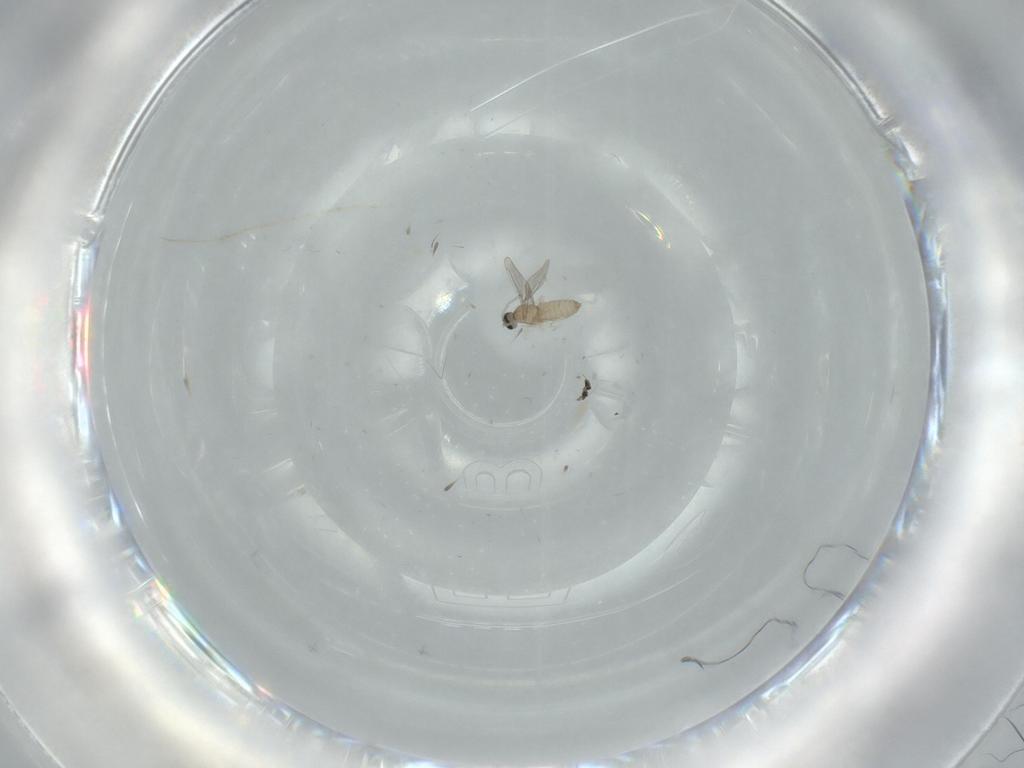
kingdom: Animalia
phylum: Arthropoda
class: Insecta
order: Diptera
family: Cecidomyiidae
